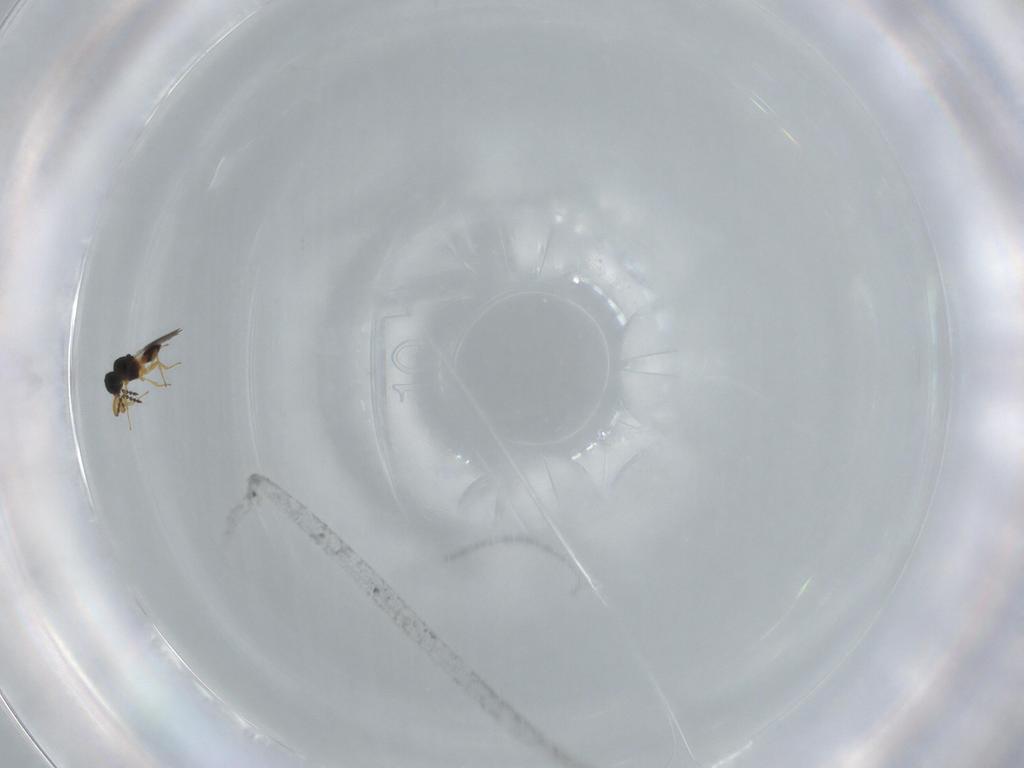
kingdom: Animalia
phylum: Arthropoda
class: Insecta
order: Hymenoptera
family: Platygastridae
